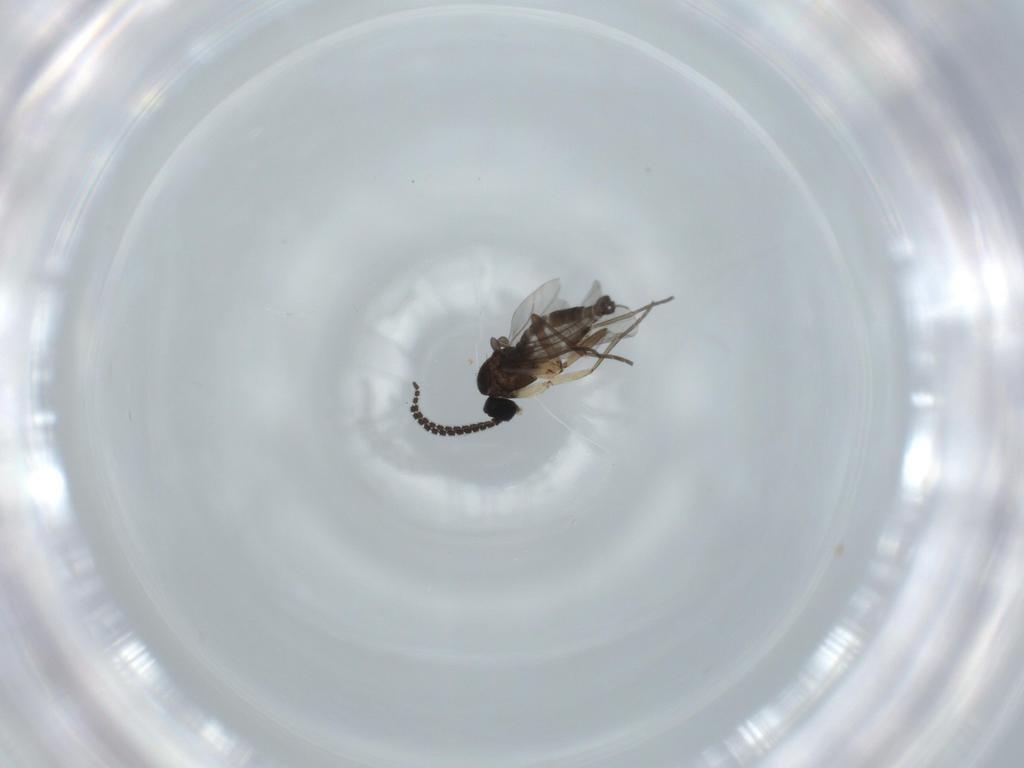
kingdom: Animalia
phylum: Arthropoda
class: Insecta
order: Diptera
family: Sciaridae
